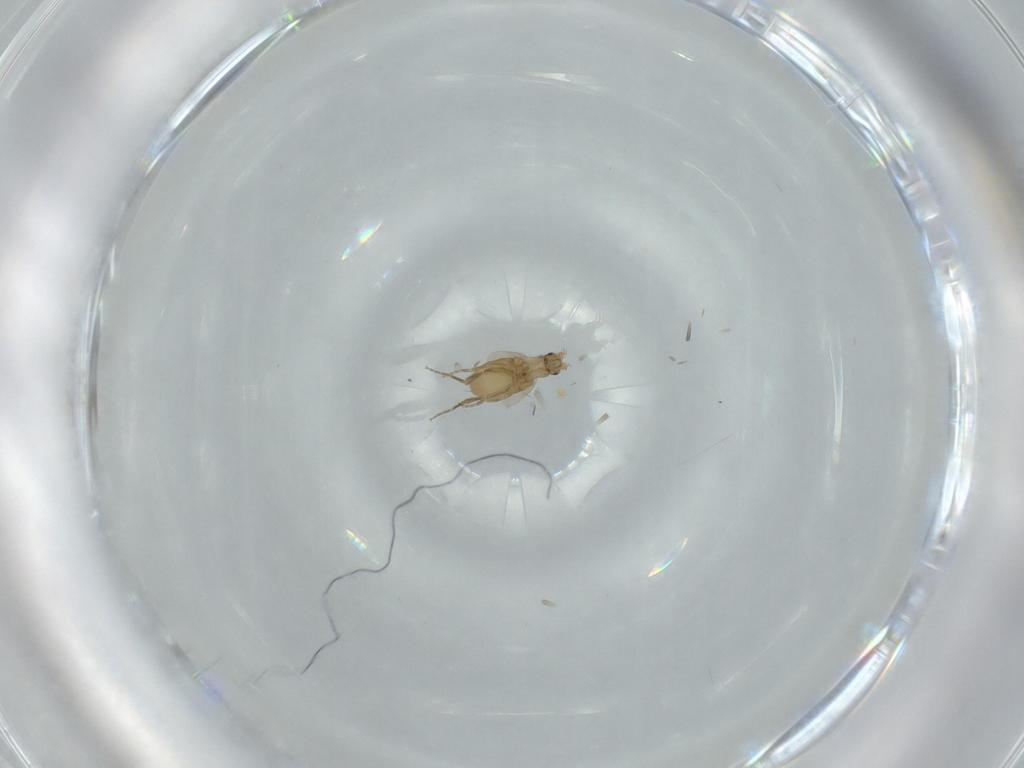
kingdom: Animalia
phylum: Arthropoda
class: Insecta
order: Diptera
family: Phoridae
